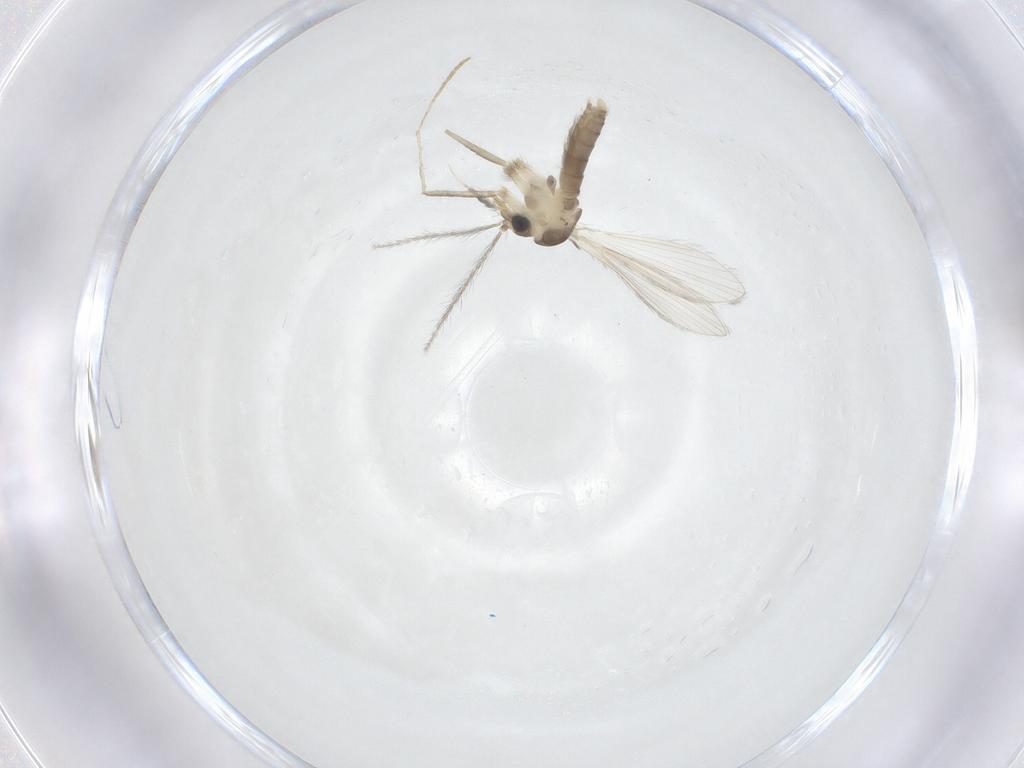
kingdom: Animalia
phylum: Arthropoda
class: Insecta
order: Diptera
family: Psychodidae
